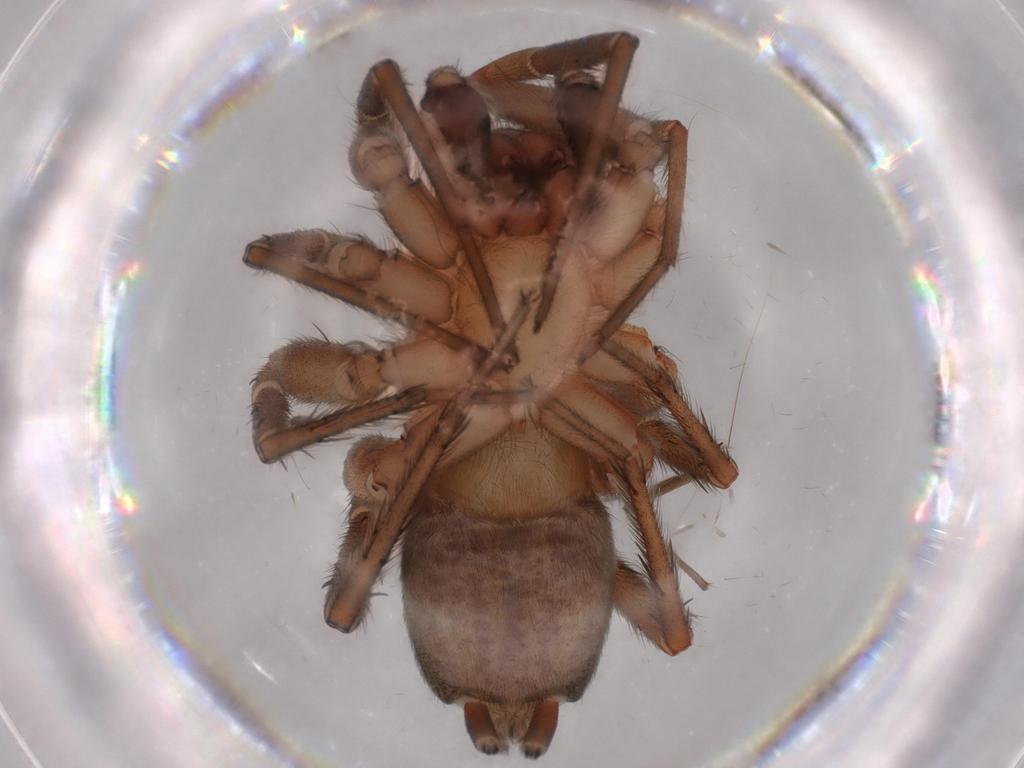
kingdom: Animalia
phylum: Arthropoda
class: Arachnida
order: Araneae
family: Gnaphosidae
